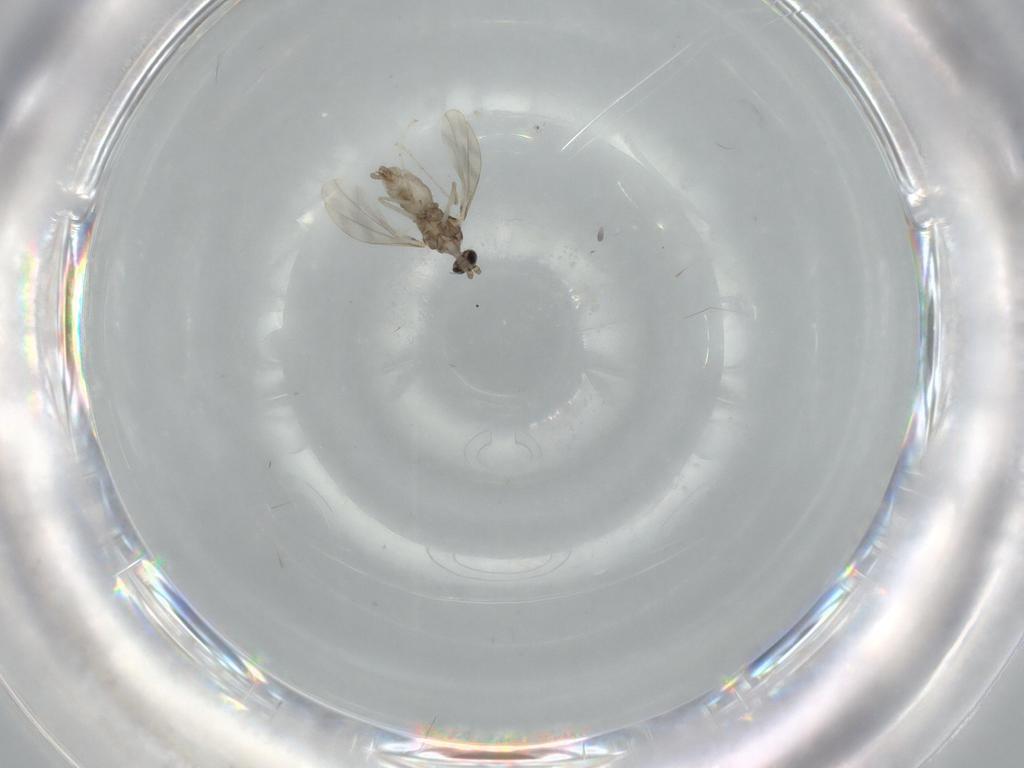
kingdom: Animalia
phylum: Arthropoda
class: Insecta
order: Diptera
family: Cecidomyiidae
